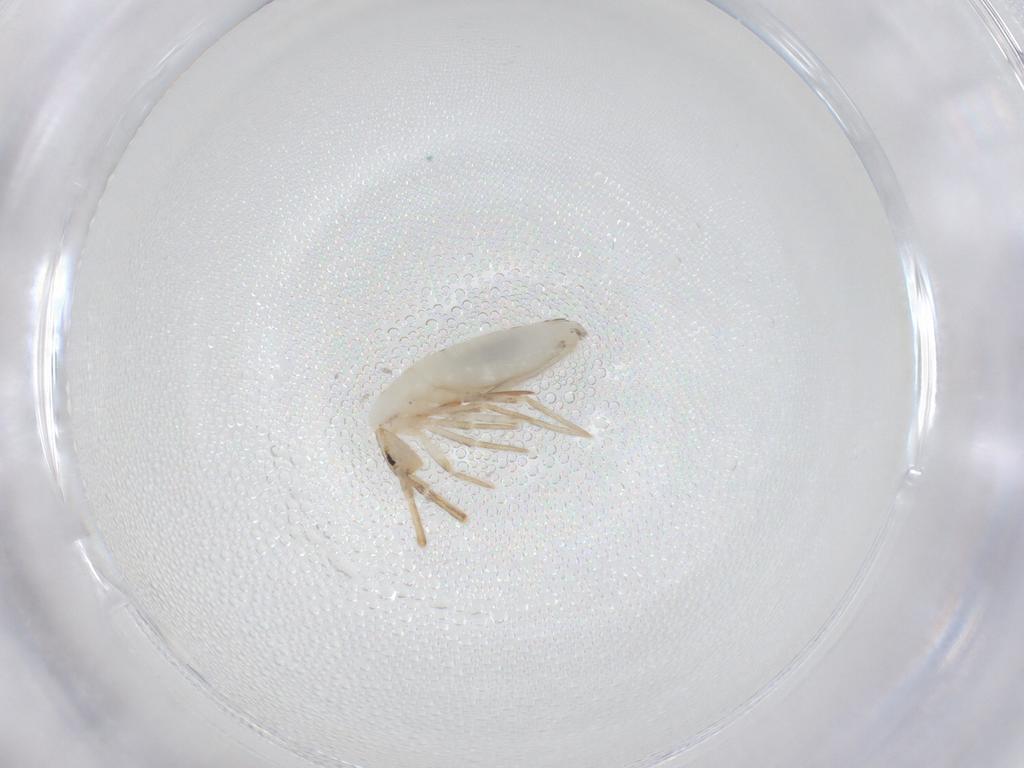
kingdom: Animalia
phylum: Arthropoda
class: Collembola
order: Entomobryomorpha
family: Entomobryidae
